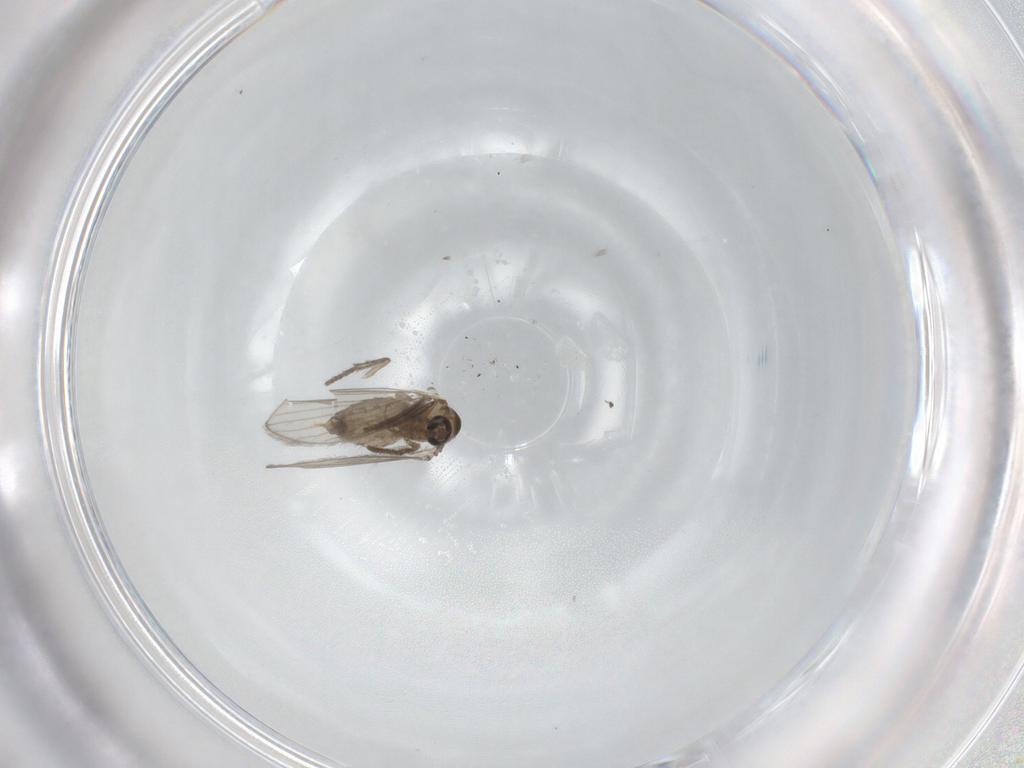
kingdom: Animalia
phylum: Arthropoda
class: Insecta
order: Diptera
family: Psychodidae
